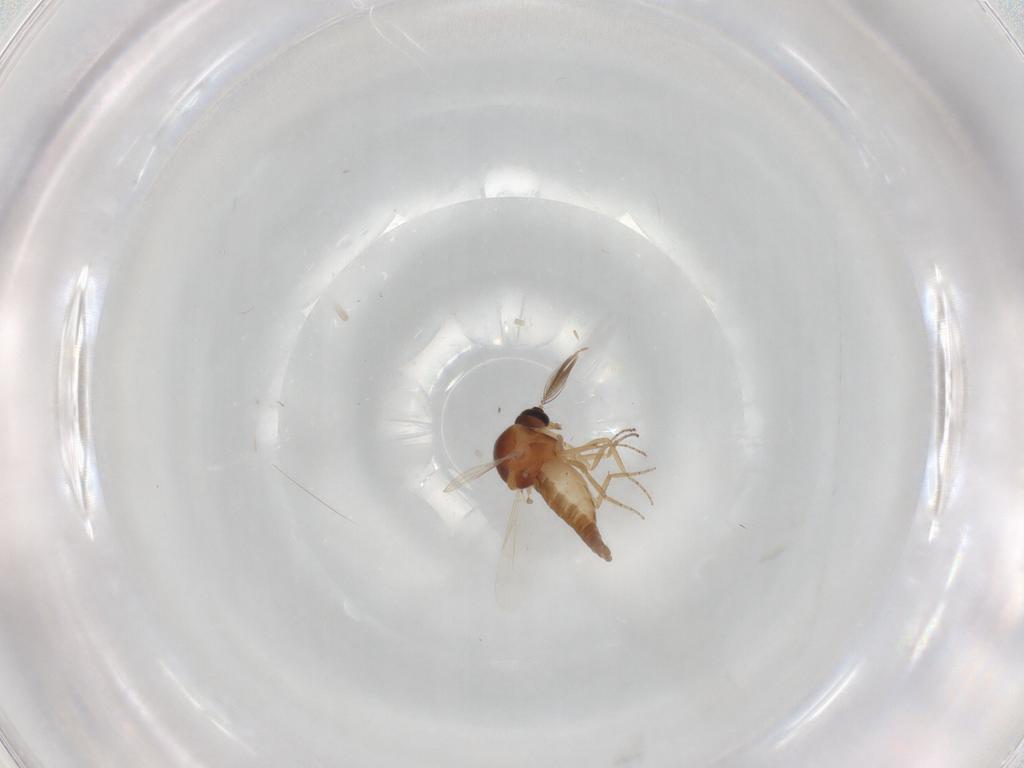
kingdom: Animalia
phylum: Arthropoda
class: Insecta
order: Diptera
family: Ceratopogonidae
